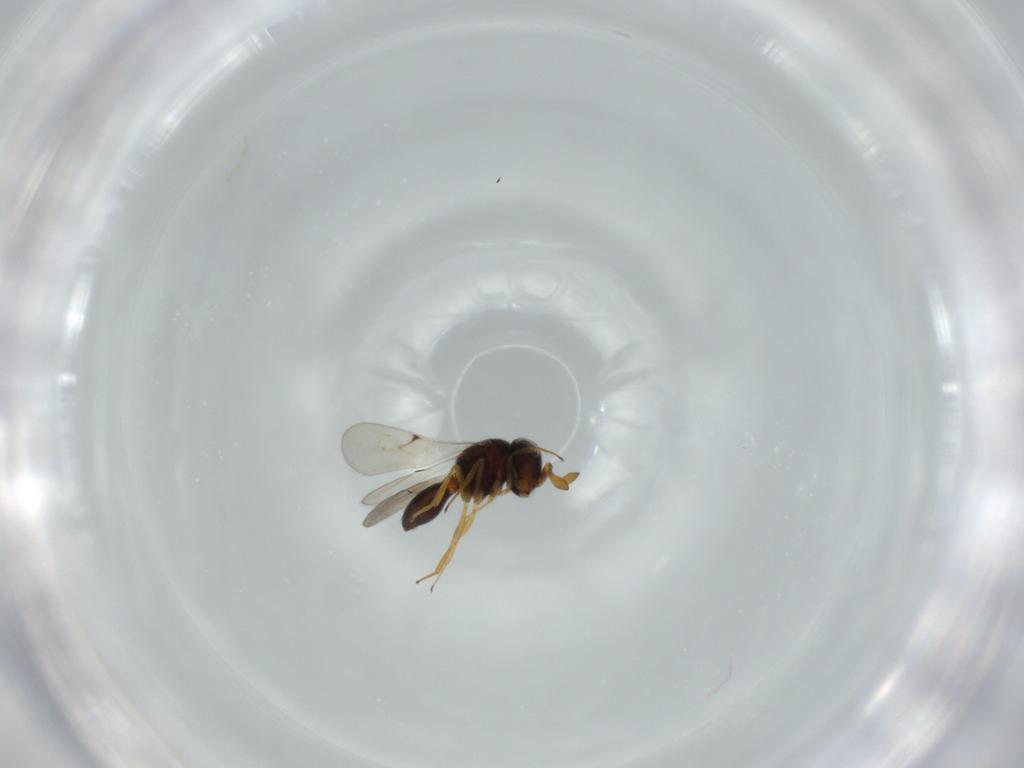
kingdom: Animalia
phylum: Arthropoda
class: Insecta
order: Hymenoptera
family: Scelionidae
